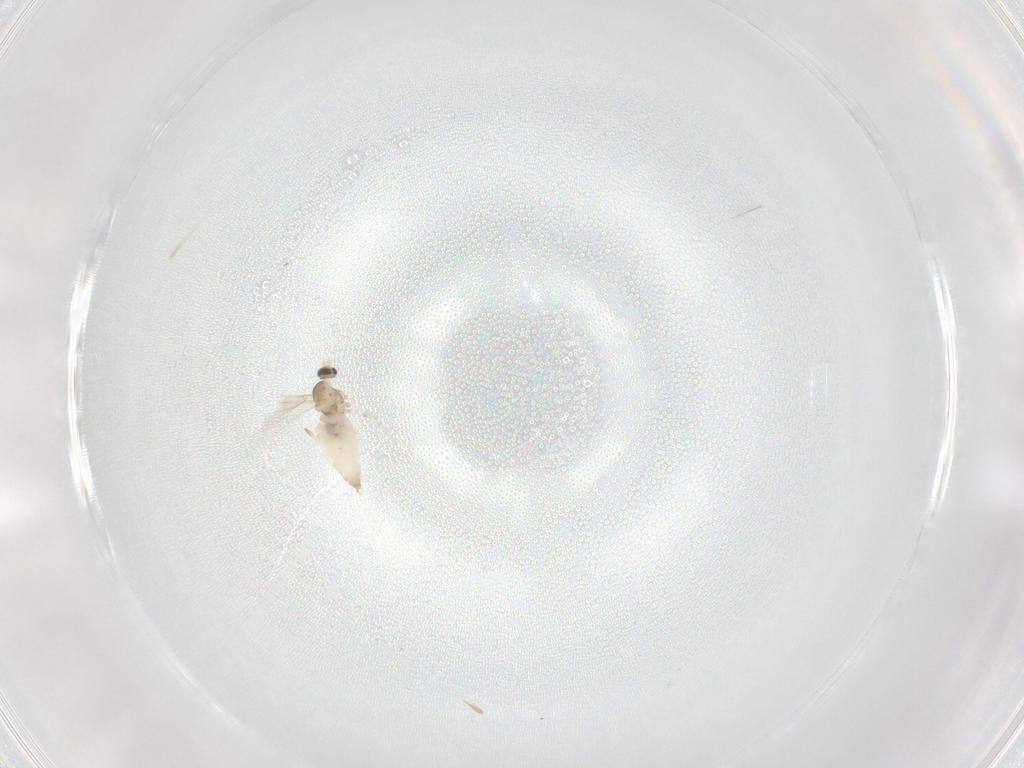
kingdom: Animalia
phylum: Arthropoda
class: Insecta
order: Diptera
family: Cecidomyiidae
